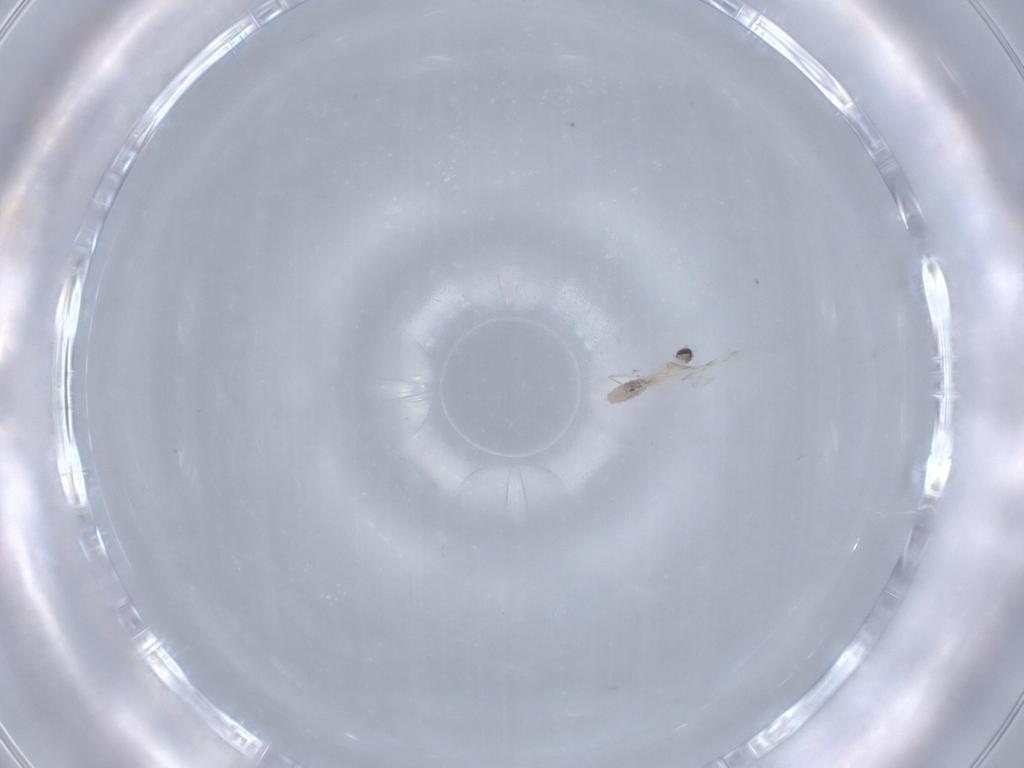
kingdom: Animalia
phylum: Arthropoda
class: Insecta
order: Diptera
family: Cecidomyiidae
